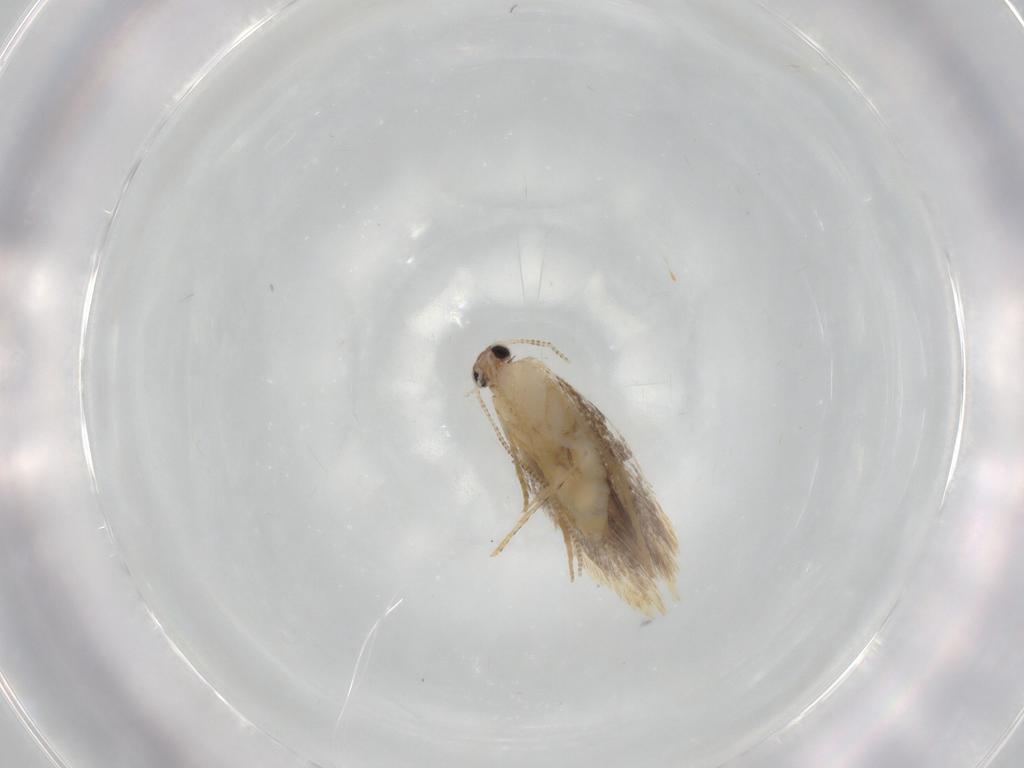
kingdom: Animalia
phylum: Arthropoda
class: Insecta
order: Lepidoptera
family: Tineidae
